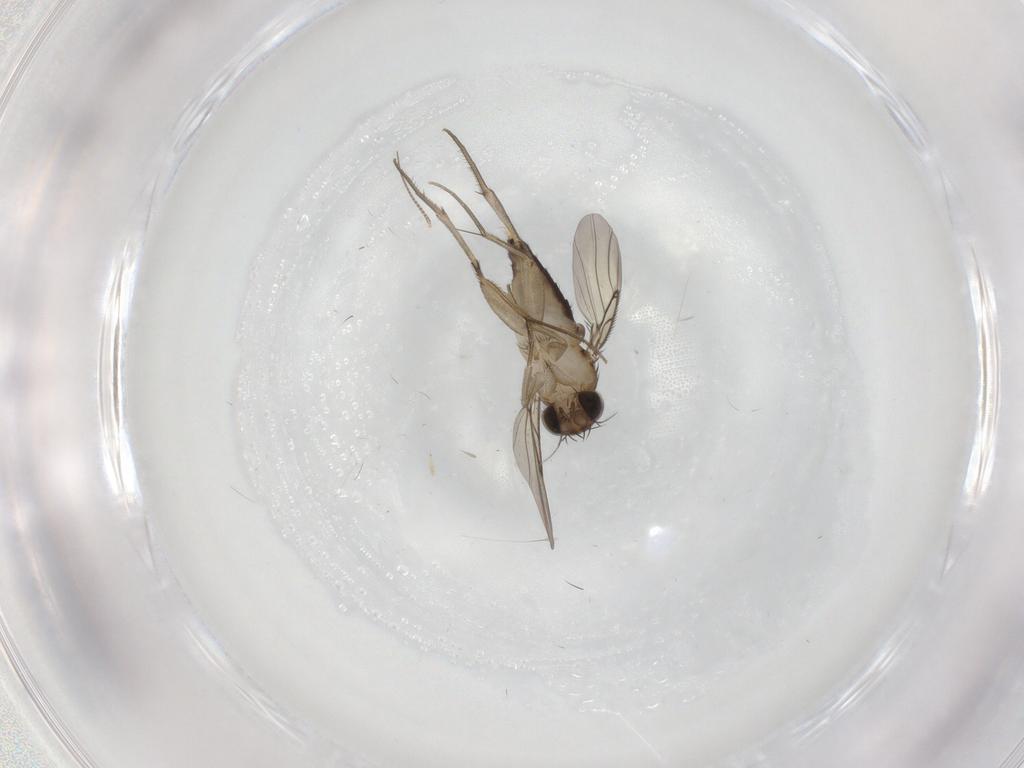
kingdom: Animalia
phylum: Arthropoda
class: Insecta
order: Diptera
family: Phoridae
